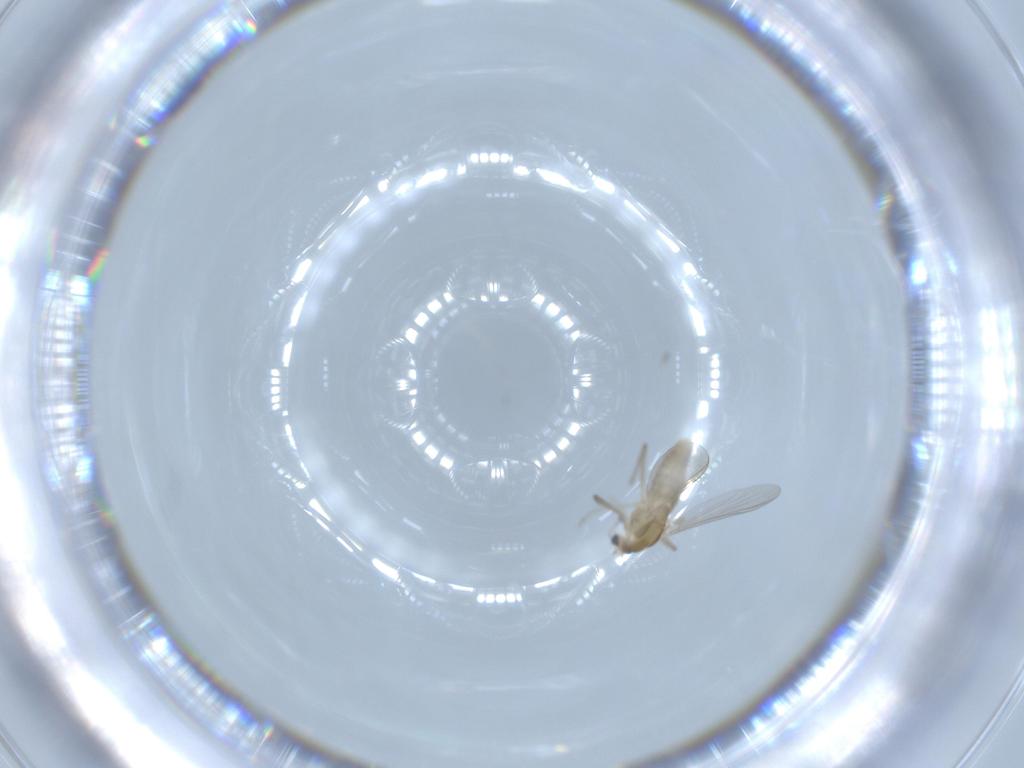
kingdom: Animalia
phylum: Arthropoda
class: Insecta
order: Diptera
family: Chironomidae
